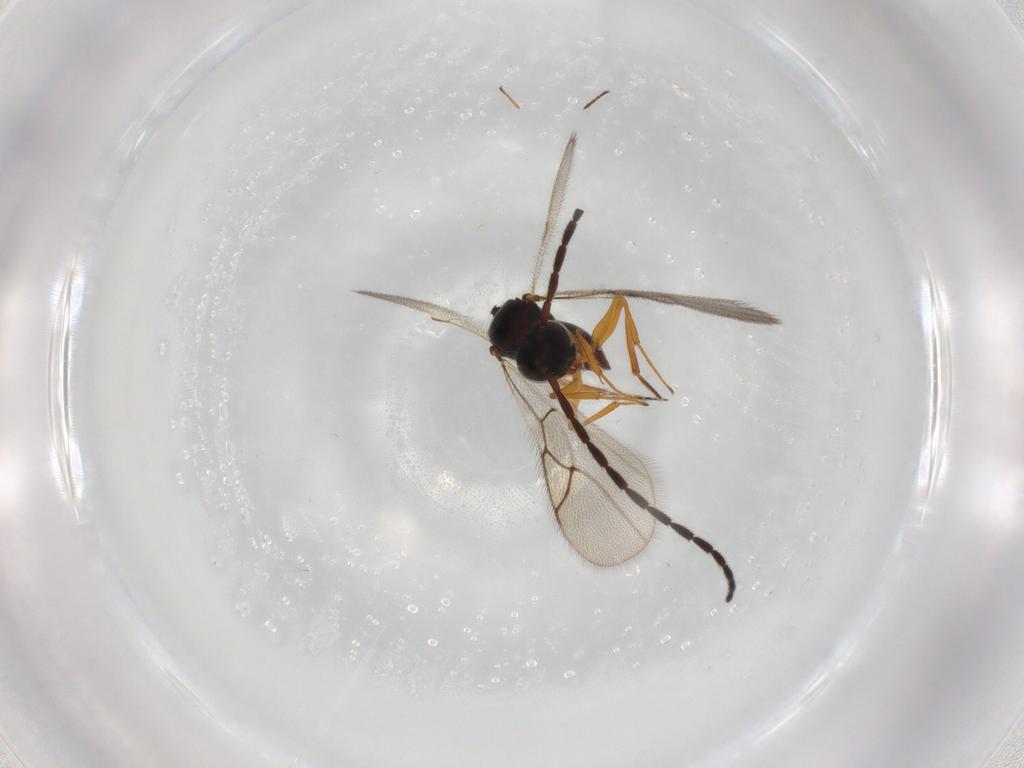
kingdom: Animalia
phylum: Arthropoda
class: Insecta
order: Hymenoptera
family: Figitidae
